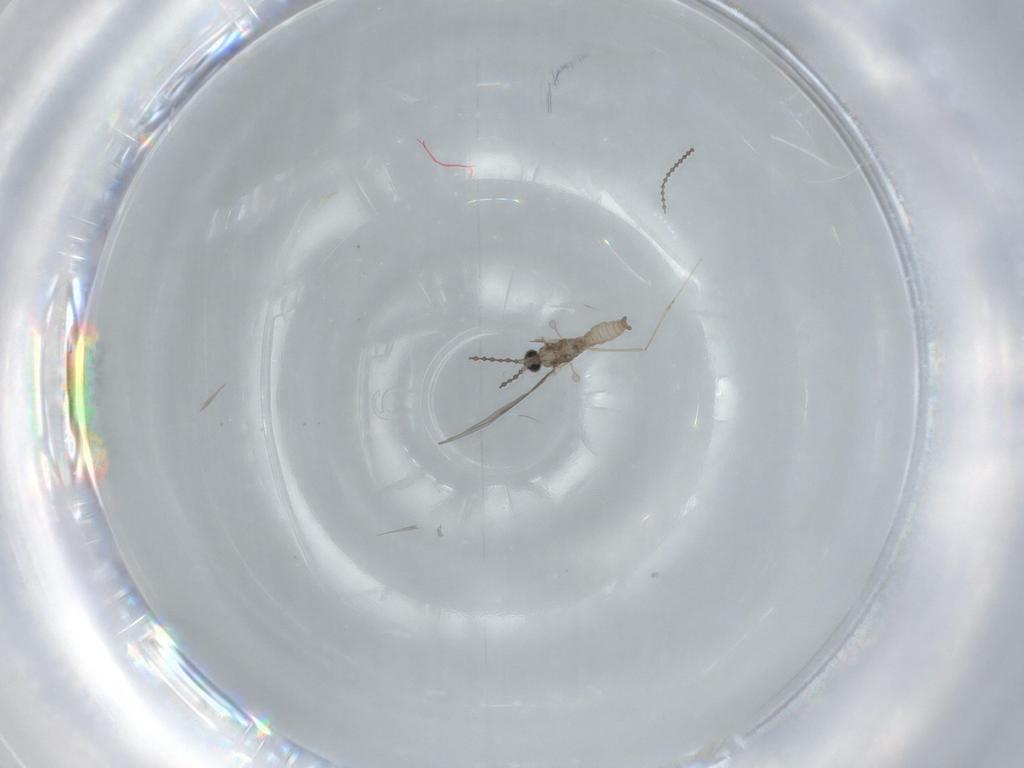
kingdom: Animalia
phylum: Arthropoda
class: Insecta
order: Diptera
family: Cecidomyiidae
